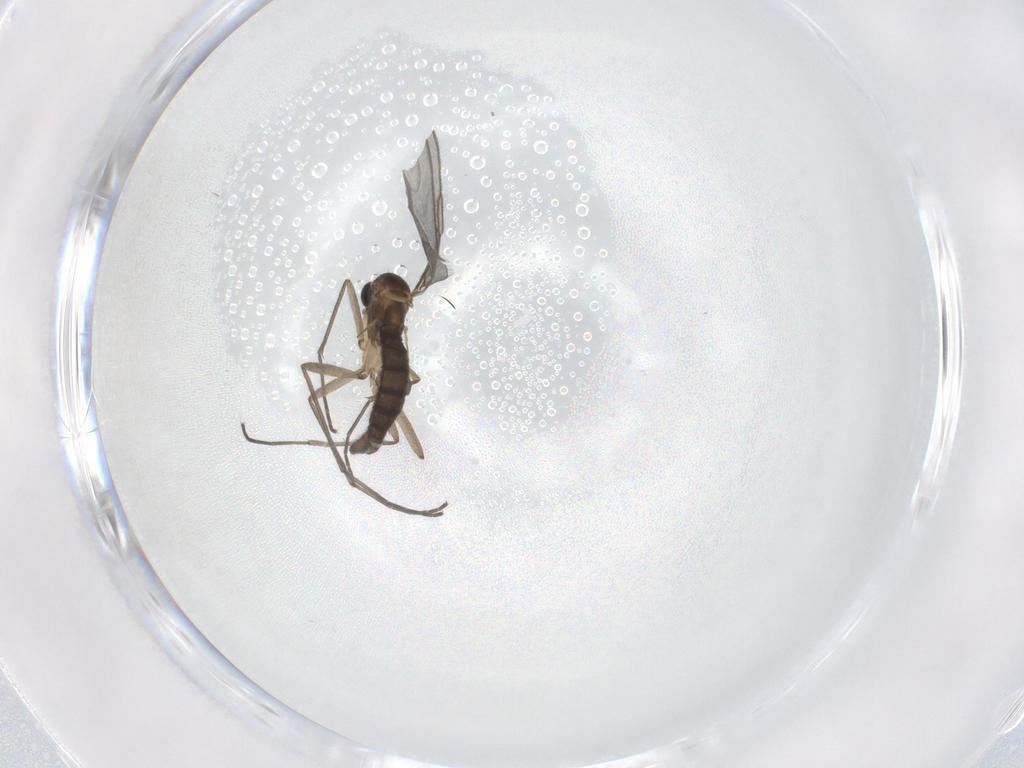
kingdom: Animalia
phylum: Arthropoda
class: Insecta
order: Diptera
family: Sciaridae
